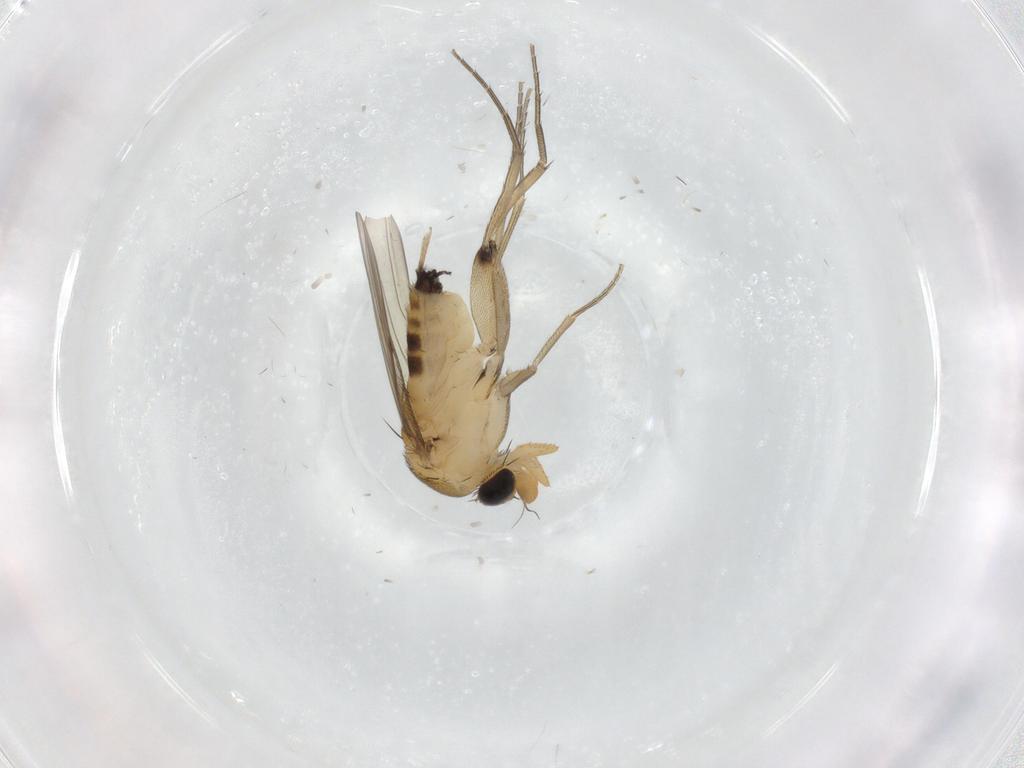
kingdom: Animalia
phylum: Arthropoda
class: Insecta
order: Diptera
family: Phoridae
